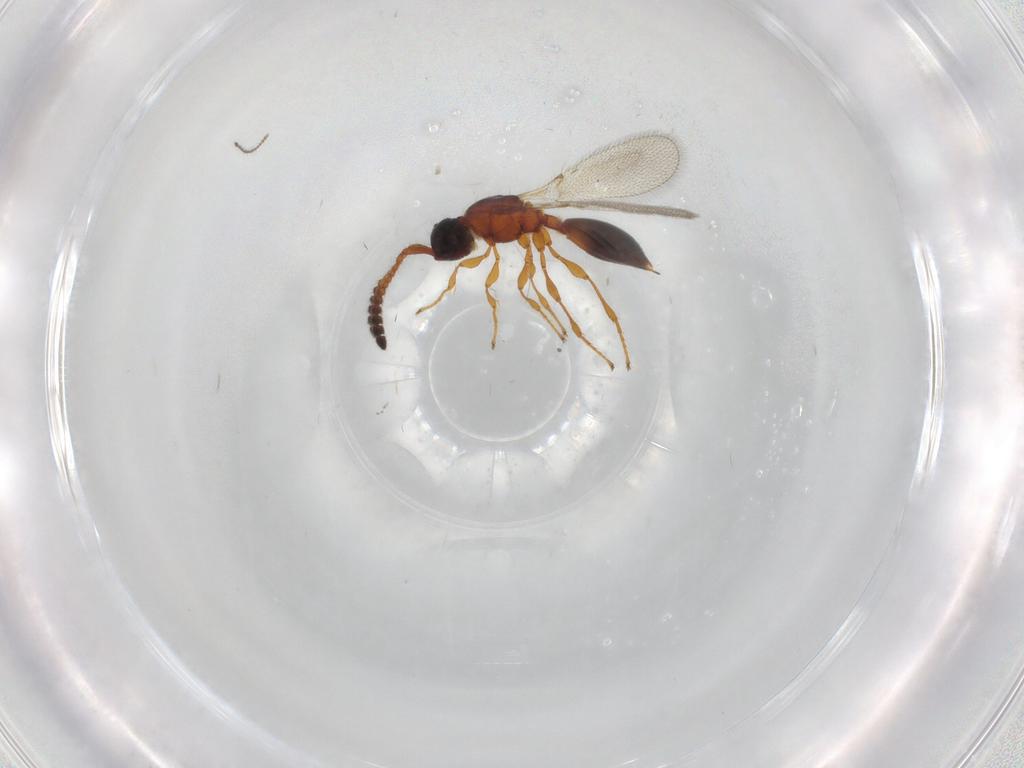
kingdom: Animalia
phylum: Arthropoda
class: Insecta
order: Hymenoptera
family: Diapriidae
